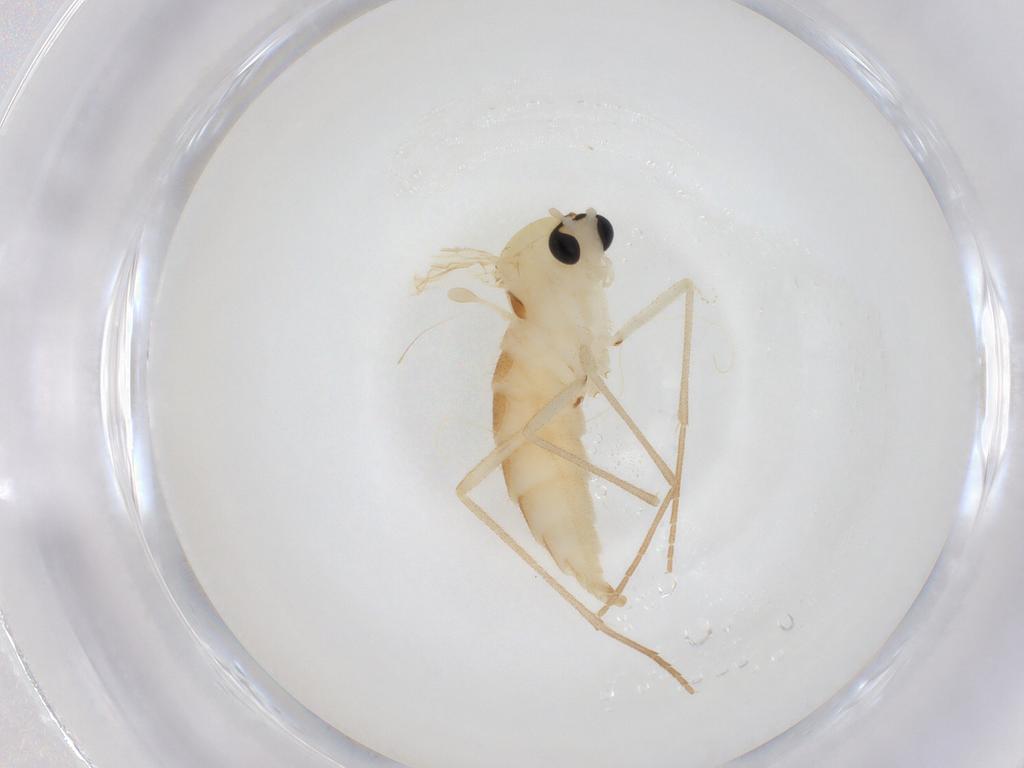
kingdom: Animalia
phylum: Arthropoda
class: Insecta
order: Diptera
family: Sciaridae
